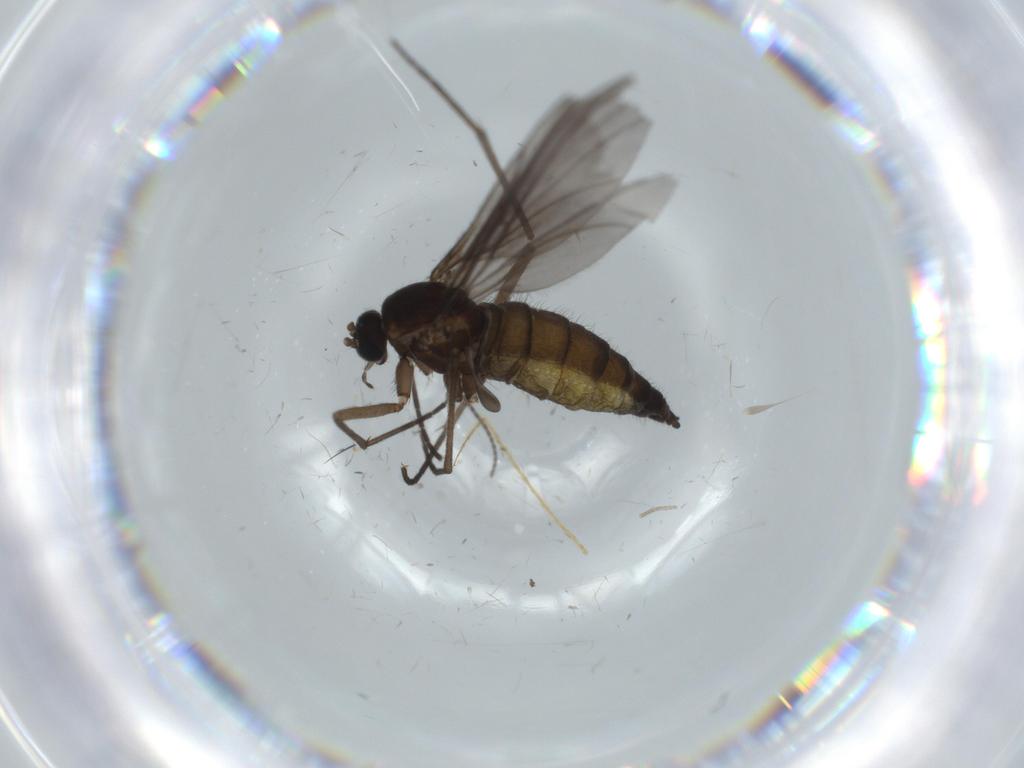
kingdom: Animalia
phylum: Arthropoda
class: Insecta
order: Diptera
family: Sciaridae
